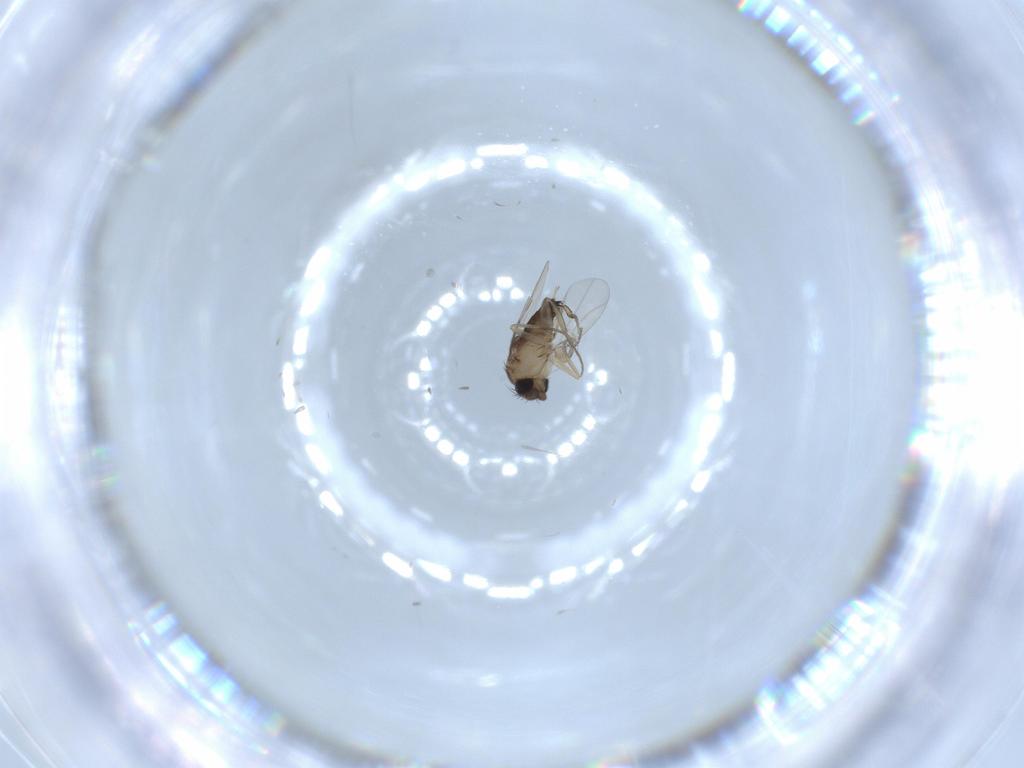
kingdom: Animalia
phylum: Arthropoda
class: Insecta
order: Diptera
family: Phoridae
